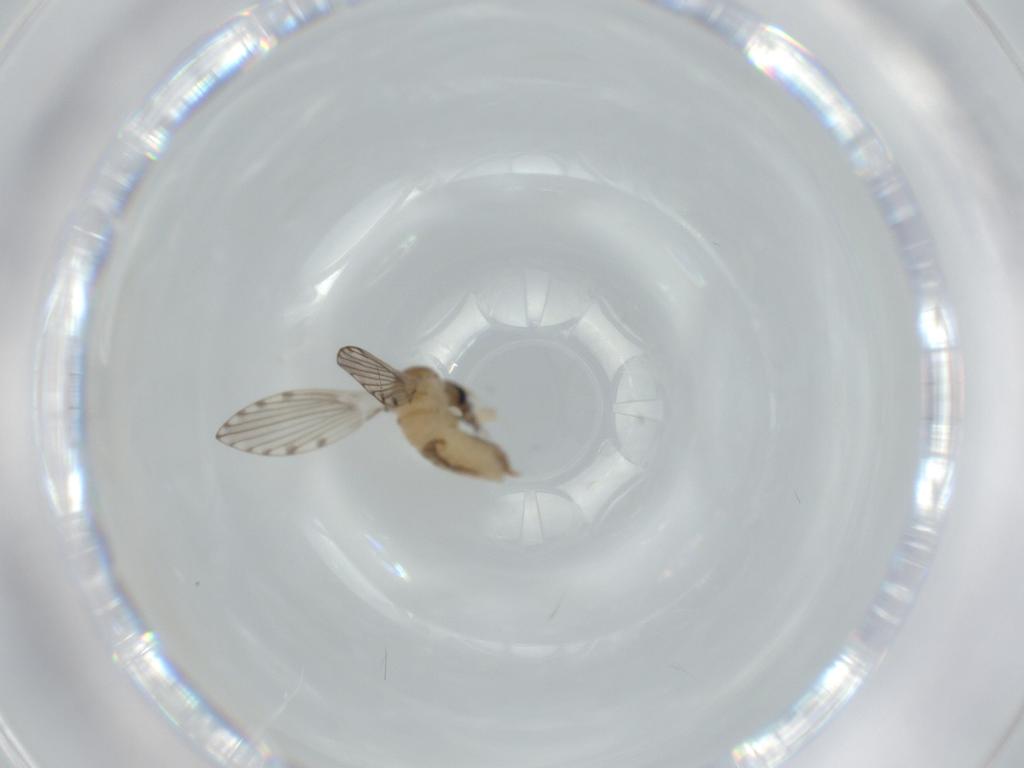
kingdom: Animalia
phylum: Arthropoda
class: Insecta
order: Diptera
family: Psychodidae
